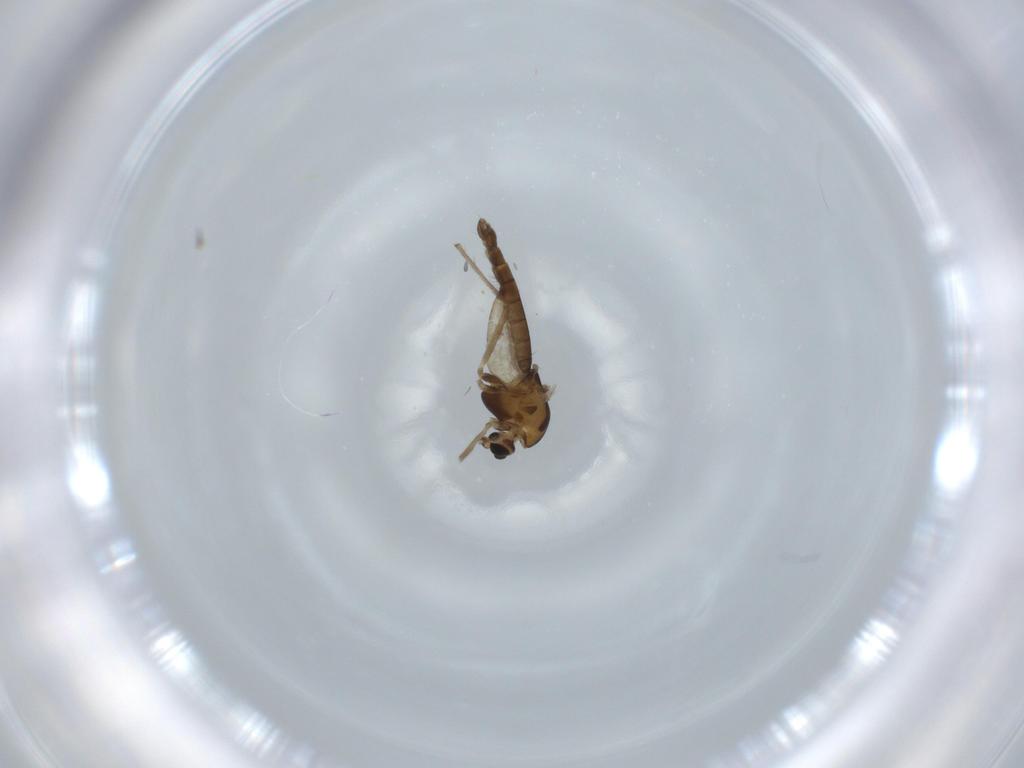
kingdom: Animalia
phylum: Arthropoda
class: Insecta
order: Diptera
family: Chironomidae
